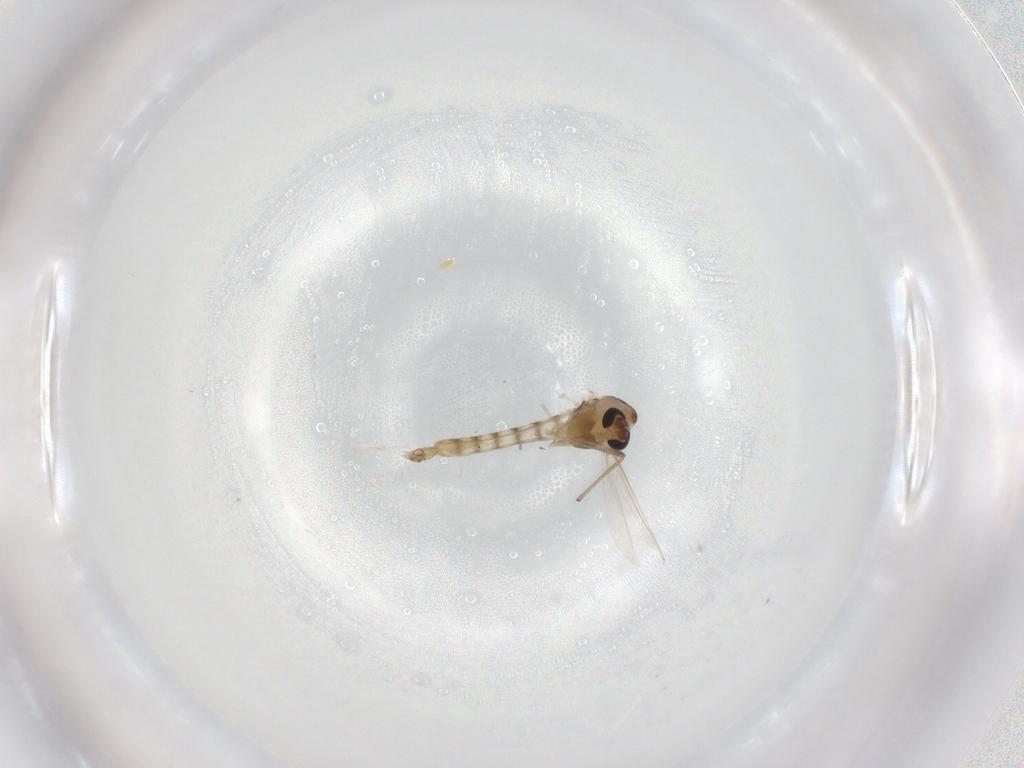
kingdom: Animalia
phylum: Arthropoda
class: Insecta
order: Diptera
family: Chironomidae
